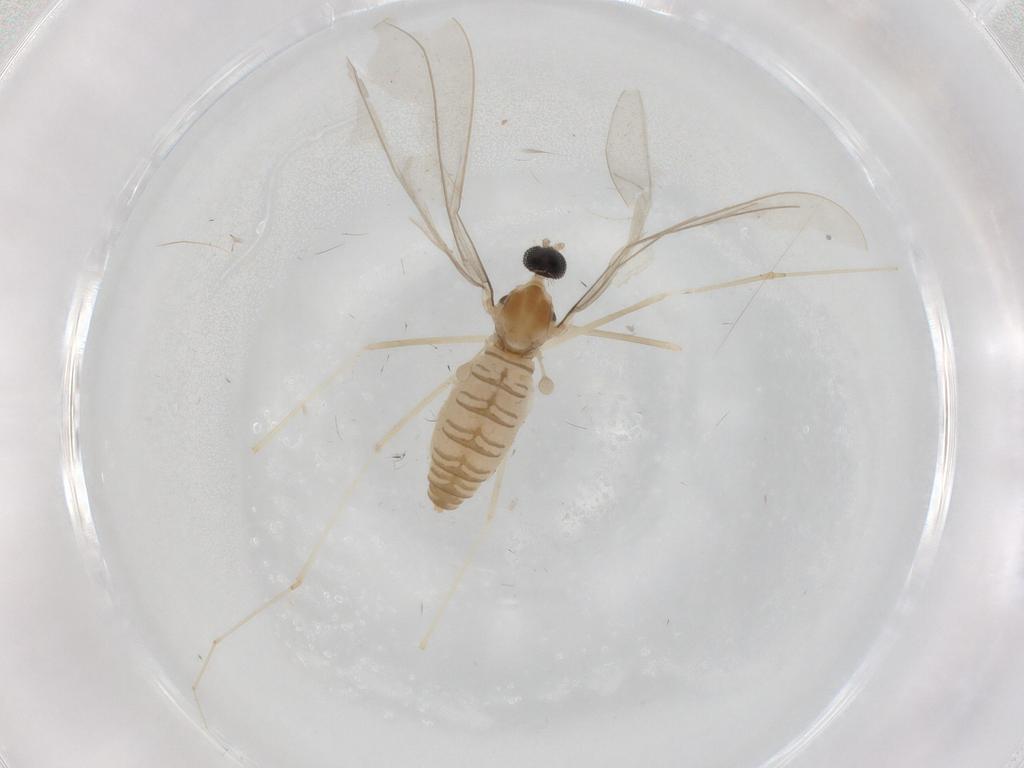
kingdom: Animalia
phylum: Arthropoda
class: Insecta
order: Diptera
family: Cecidomyiidae
